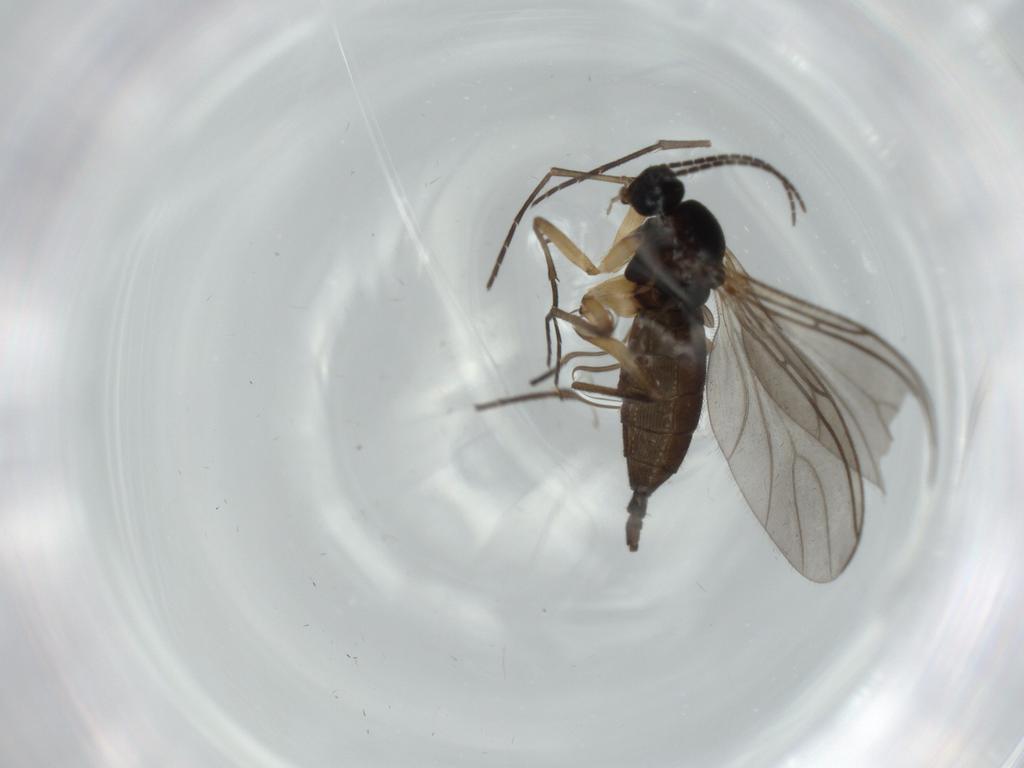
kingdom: Animalia
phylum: Arthropoda
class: Insecta
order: Diptera
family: Sciaridae
